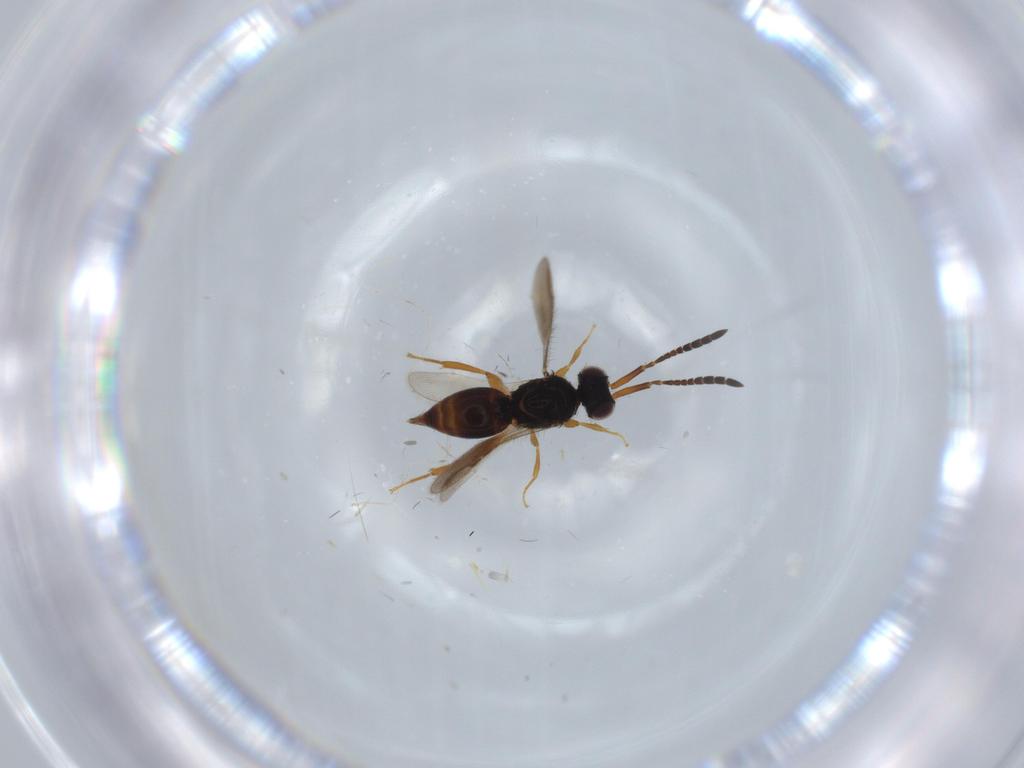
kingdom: Animalia
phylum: Arthropoda
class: Insecta
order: Hymenoptera
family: Ceraphronidae
